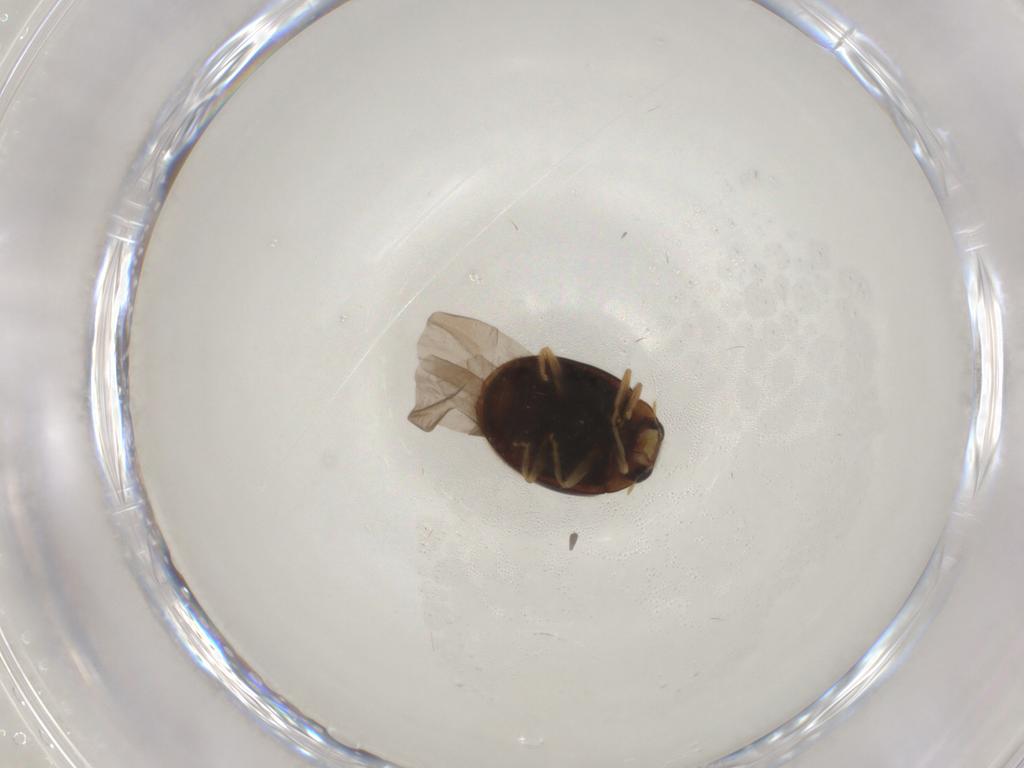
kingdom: Animalia
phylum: Arthropoda
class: Insecta
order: Coleoptera
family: Coccinellidae
